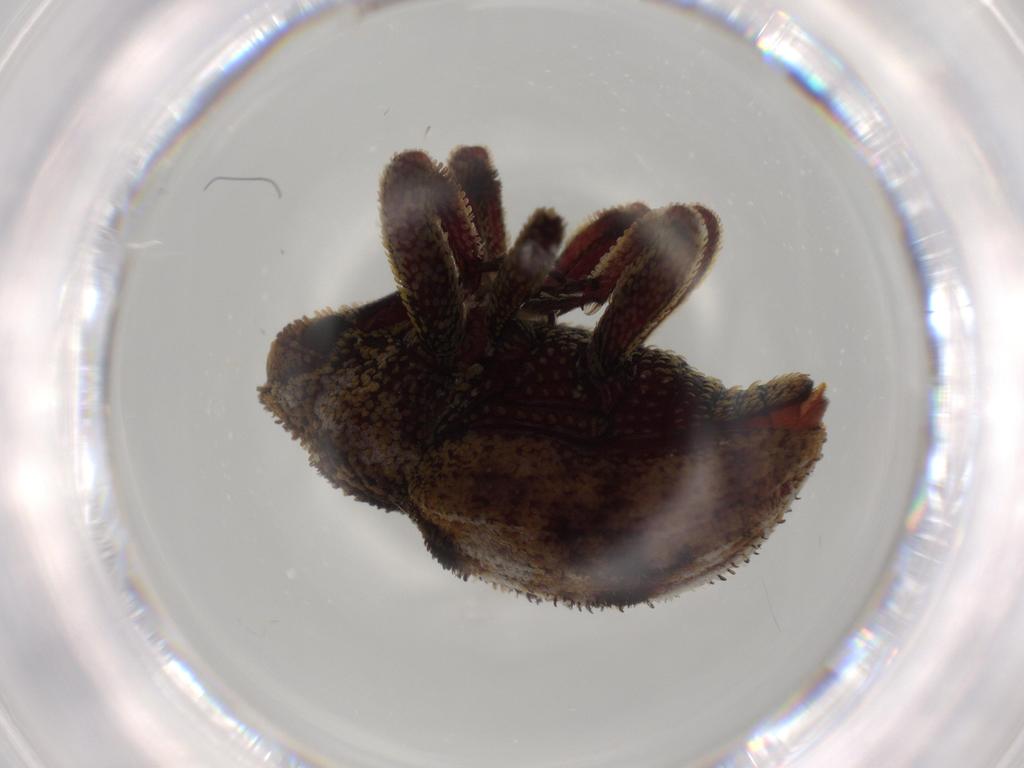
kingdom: Animalia
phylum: Arthropoda
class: Insecta
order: Coleoptera
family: Curculionidae
